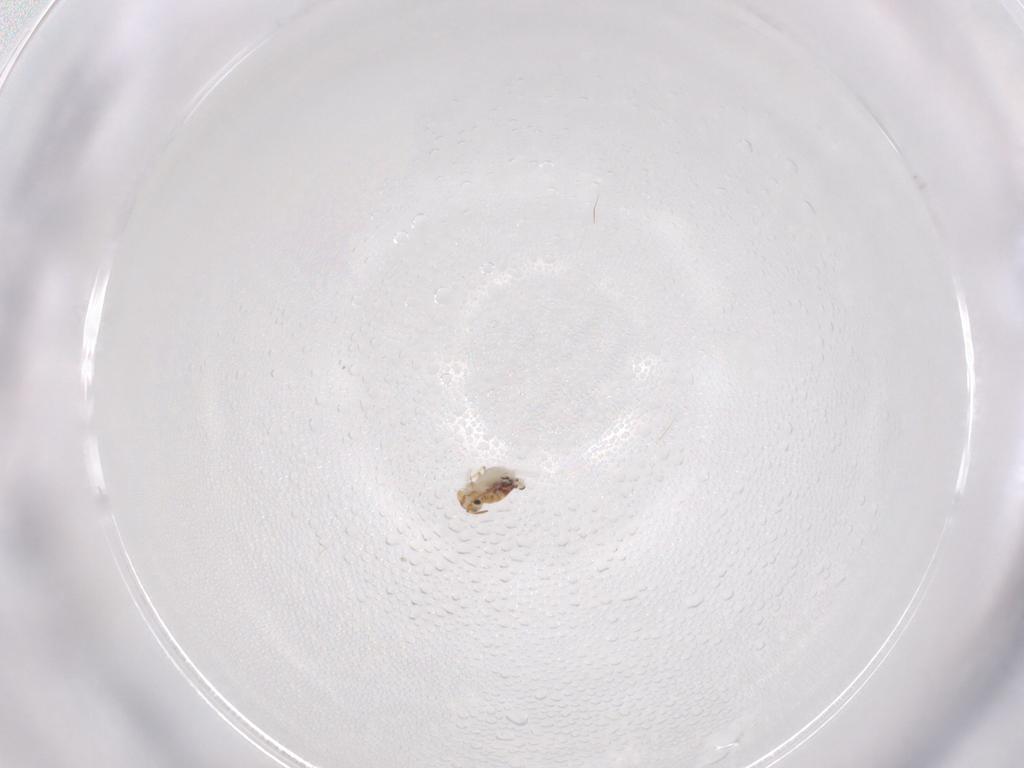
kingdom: Animalia
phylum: Arthropoda
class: Collembola
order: Symphypleona
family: Bourletiellidae
